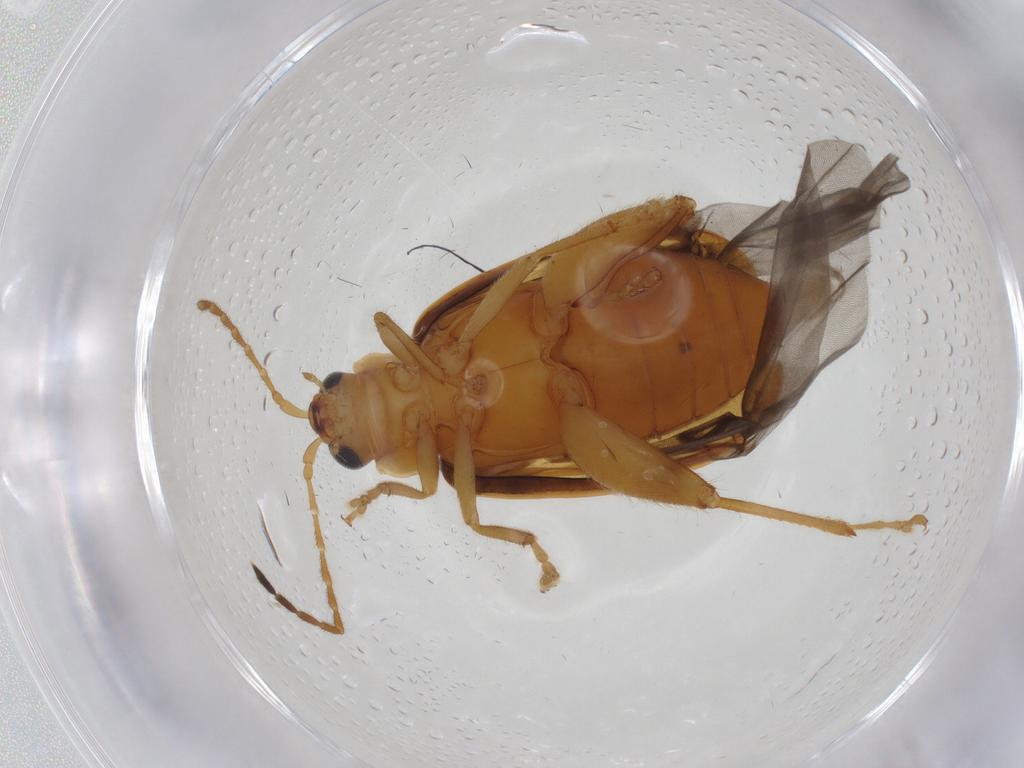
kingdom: Animalia
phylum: Arthropoda
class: Insecta
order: Coleoptera
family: Chrysomelidae
